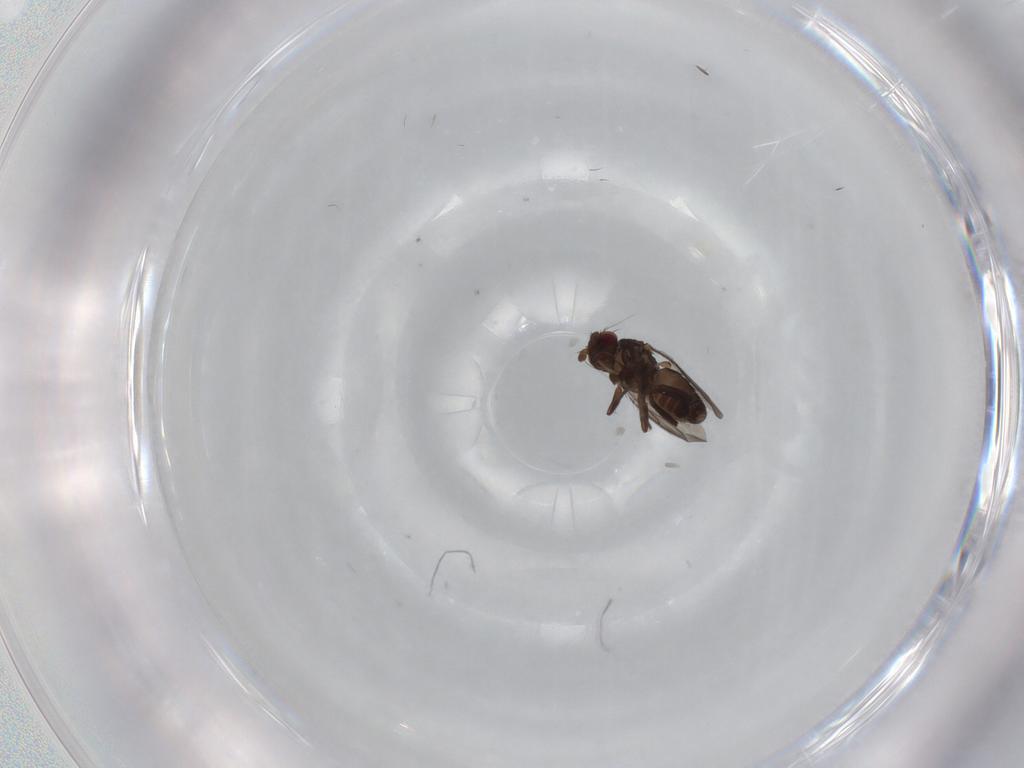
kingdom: Animalia
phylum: Arthropoda
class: Insecta
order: Diptera
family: Sphaeroceridae
